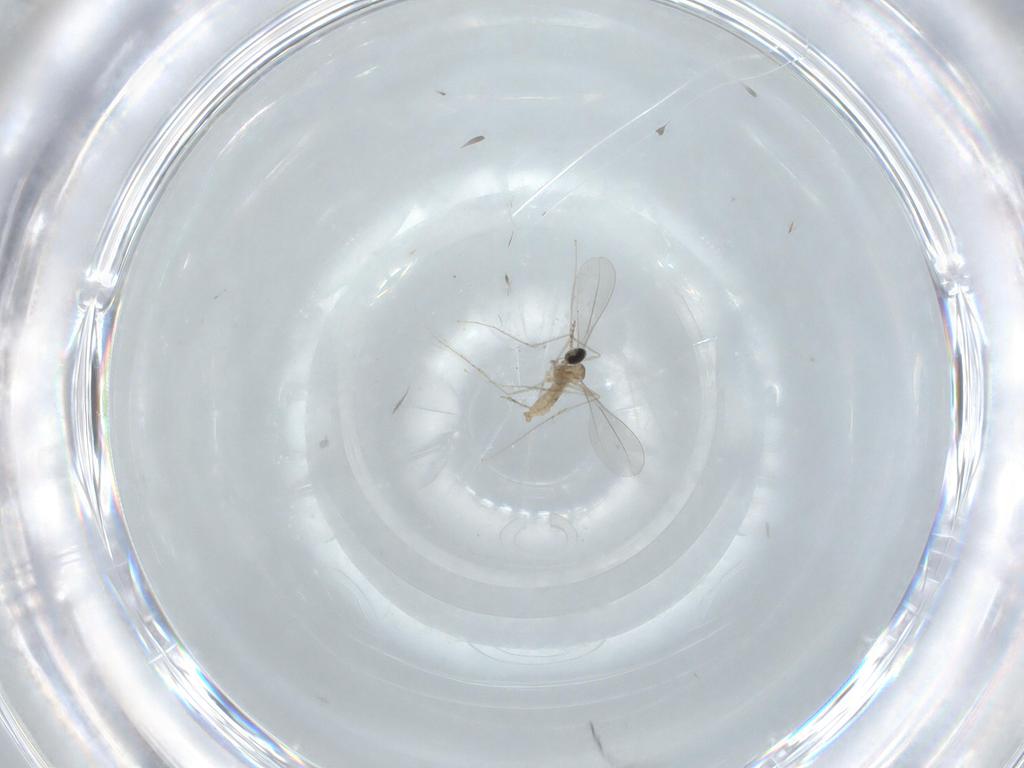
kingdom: Animalia
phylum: Arthropoda
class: Insecta
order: Diptera
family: Cecidomyiidae
